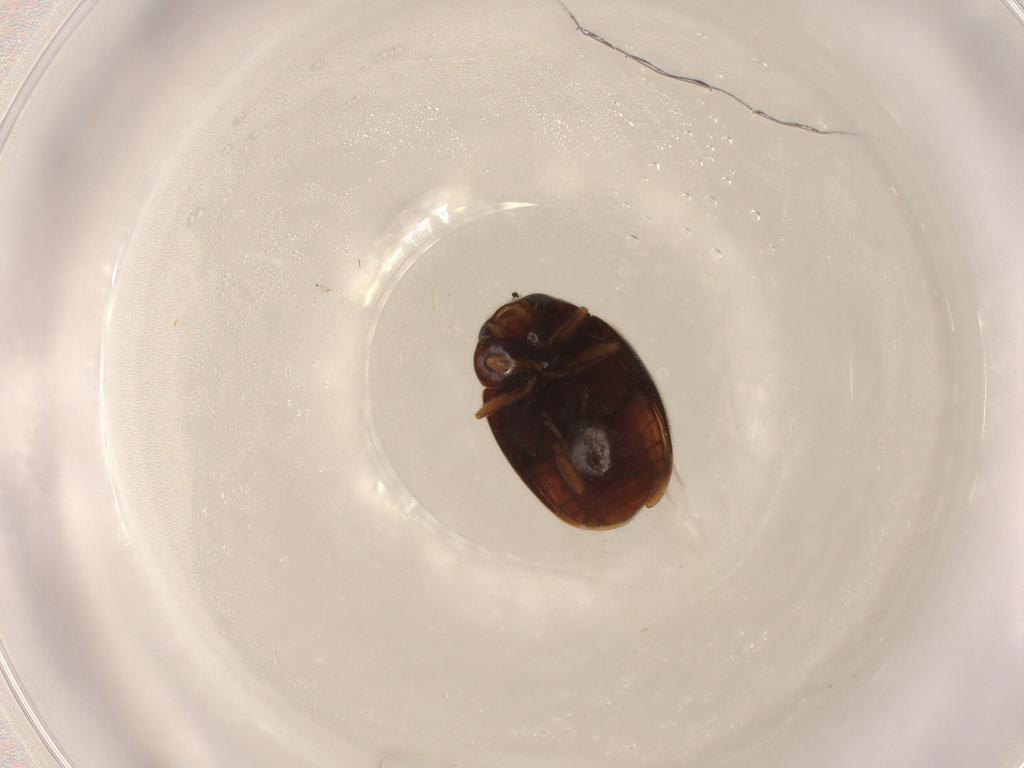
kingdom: Animalia
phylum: Arthropoda
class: Insecta
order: Coleoptera
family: Coccinellidae
